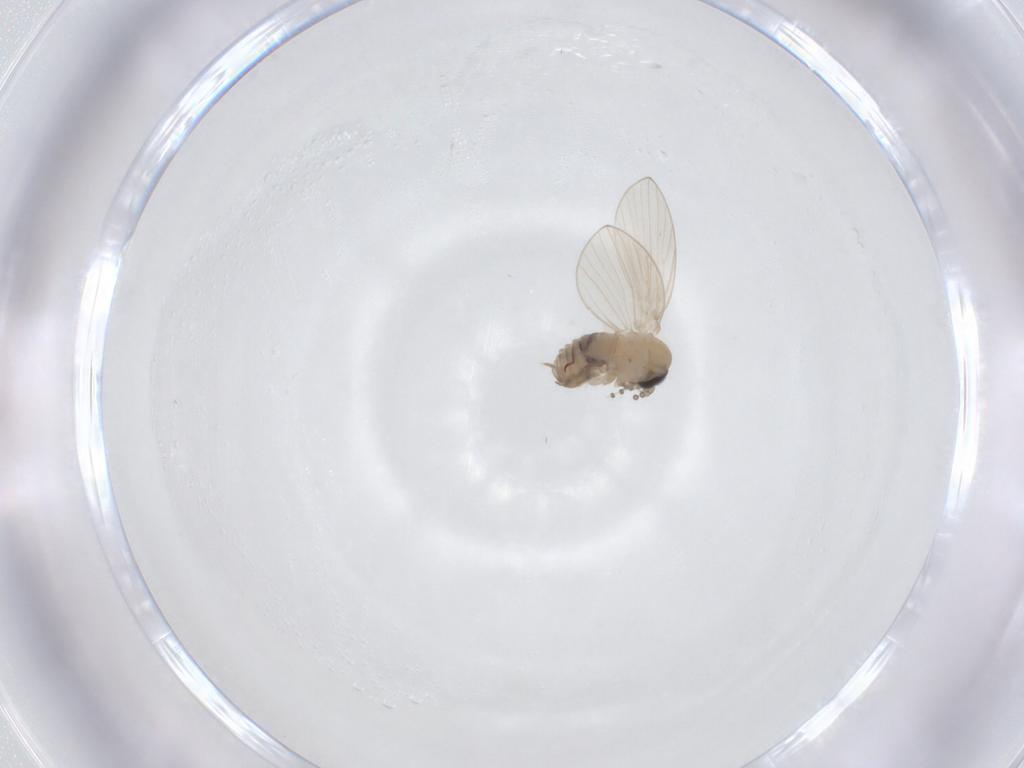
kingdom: Animalia
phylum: Arthropoda
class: Insecta
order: Diptera
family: Psychodidae
